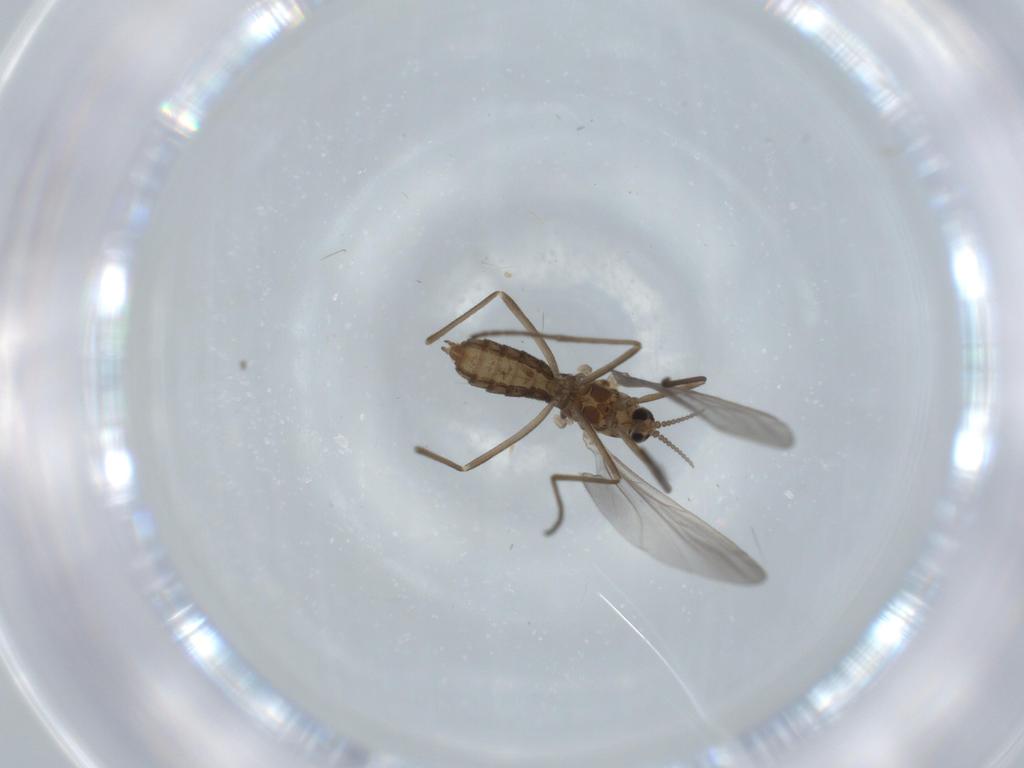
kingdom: Animalia
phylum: Arthropoda
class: Insecta
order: Diptera
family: Cecidomyiidae
